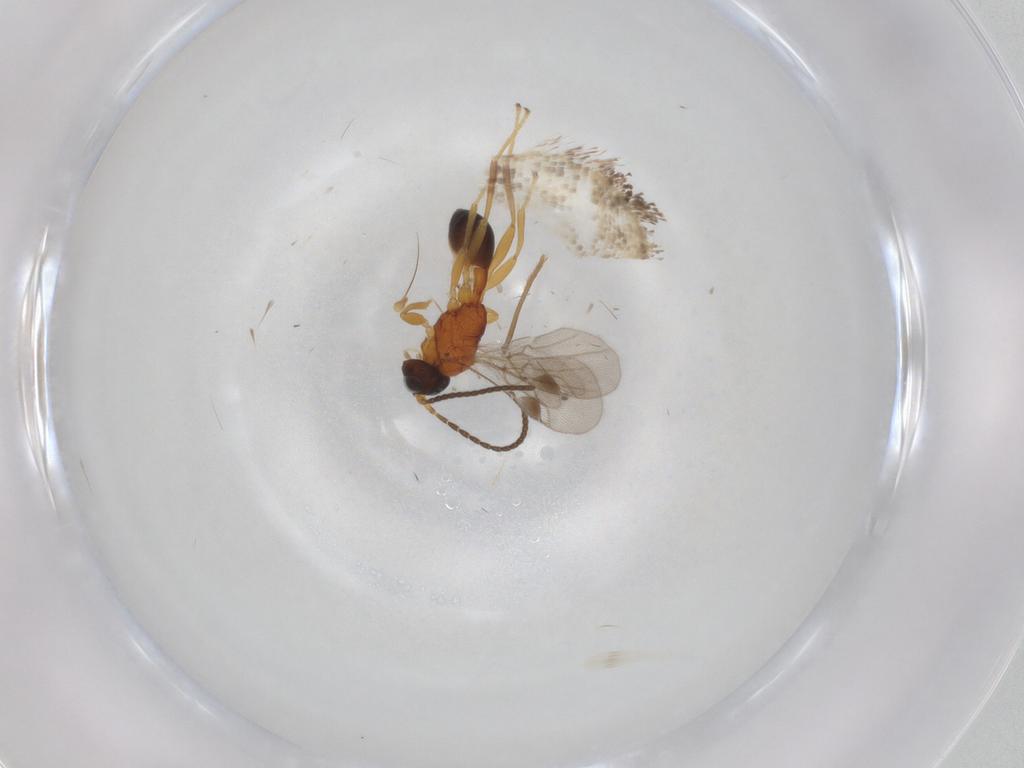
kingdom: Animalia
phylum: Arthropoda
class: Insecta
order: Hymenoptera
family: Braconidae
